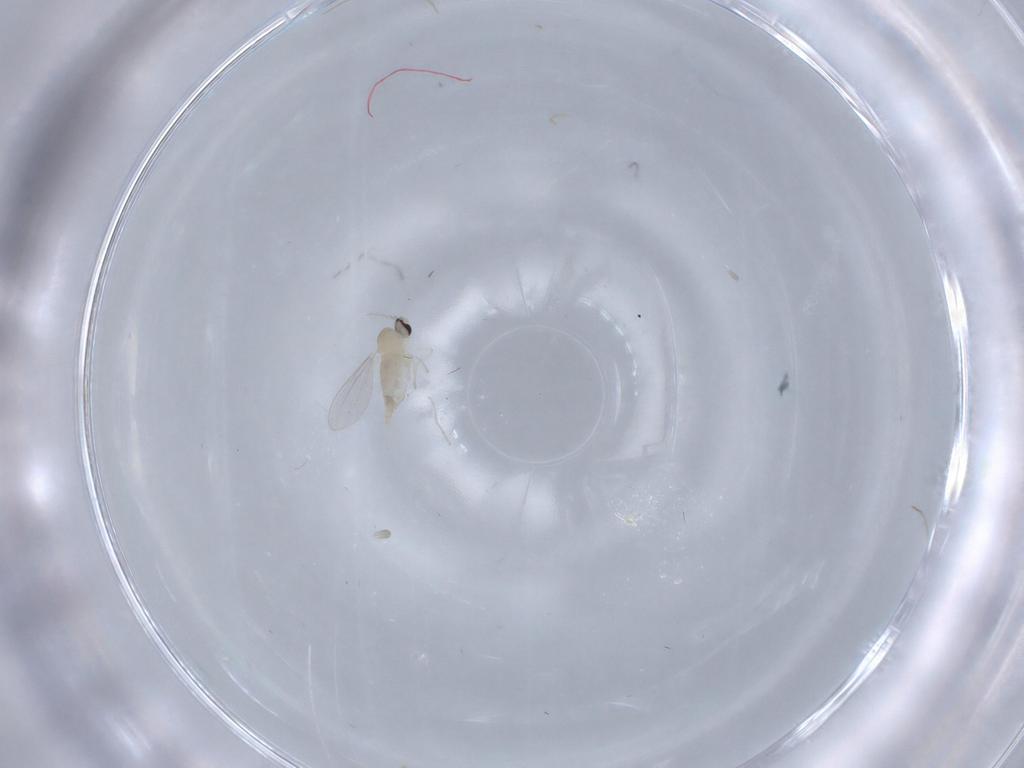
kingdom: Animalia
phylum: Arthropoda
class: Insecta
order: Diptera
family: Cecidomyiidae
